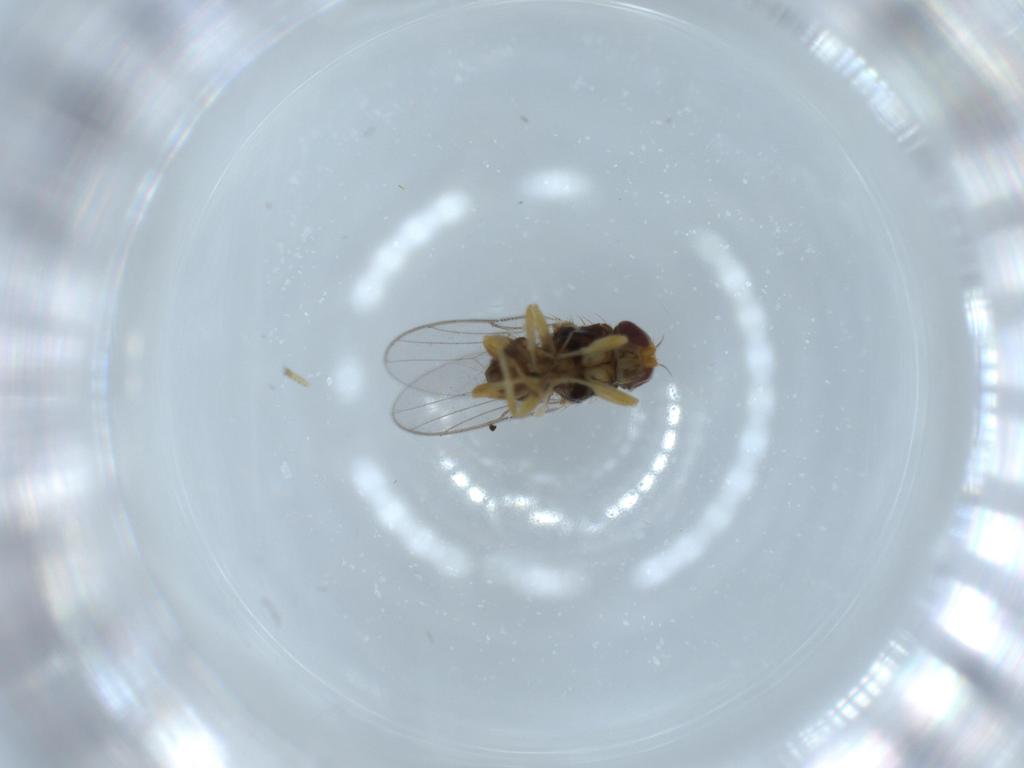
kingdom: Animalia
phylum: Arthropoda
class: Insecta
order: Diptera
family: Chloropidae
